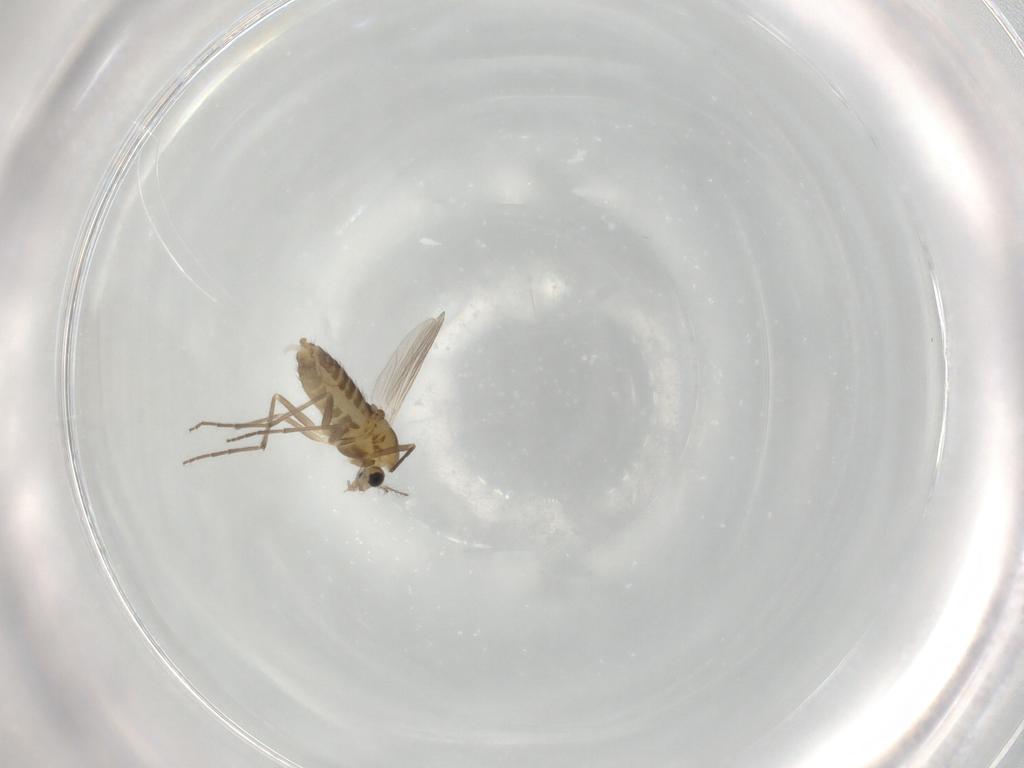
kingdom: Animalia
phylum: Arthropoda
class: Insecta
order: Diptera
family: Chironomidae
